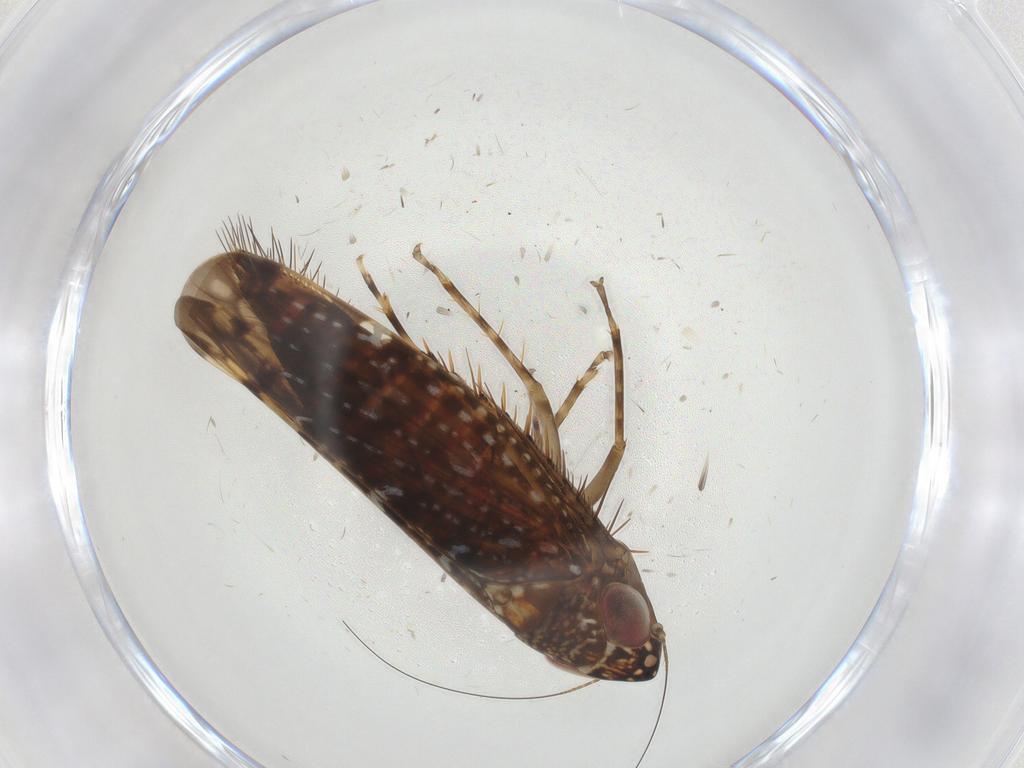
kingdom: Animalia
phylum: Arthropoda
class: Insecta
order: Hemiptera
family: Cicadellidae
